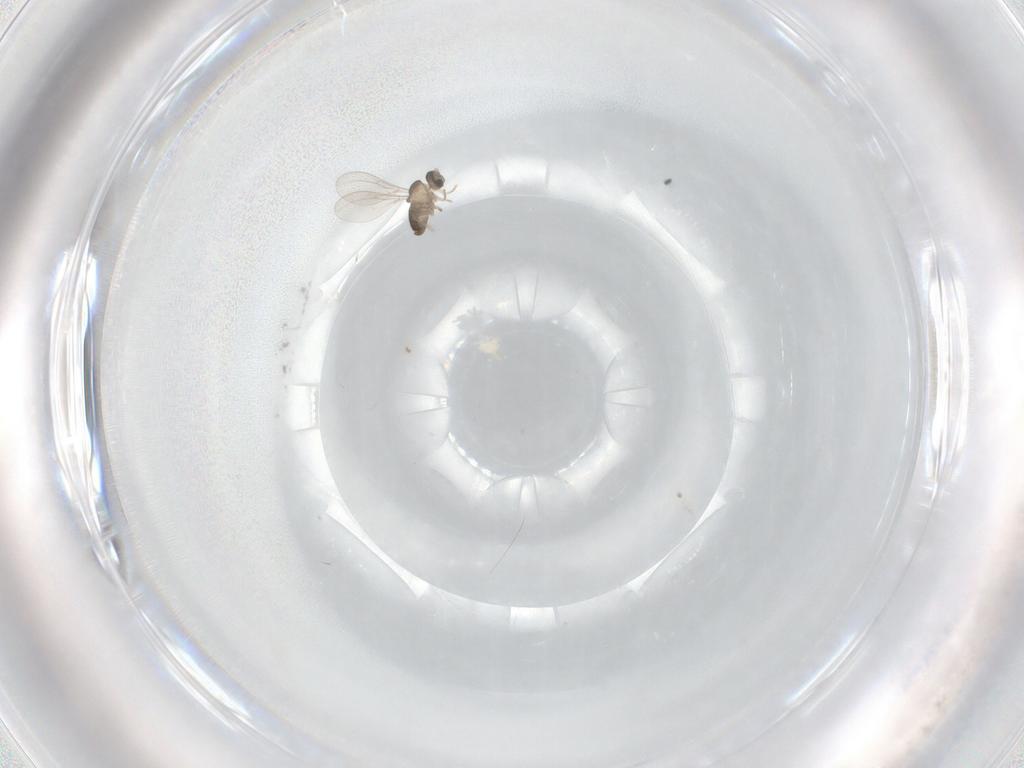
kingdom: Animalia
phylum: Arthropoda
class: Insecta
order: Diptera
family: Cecidomyiidae
